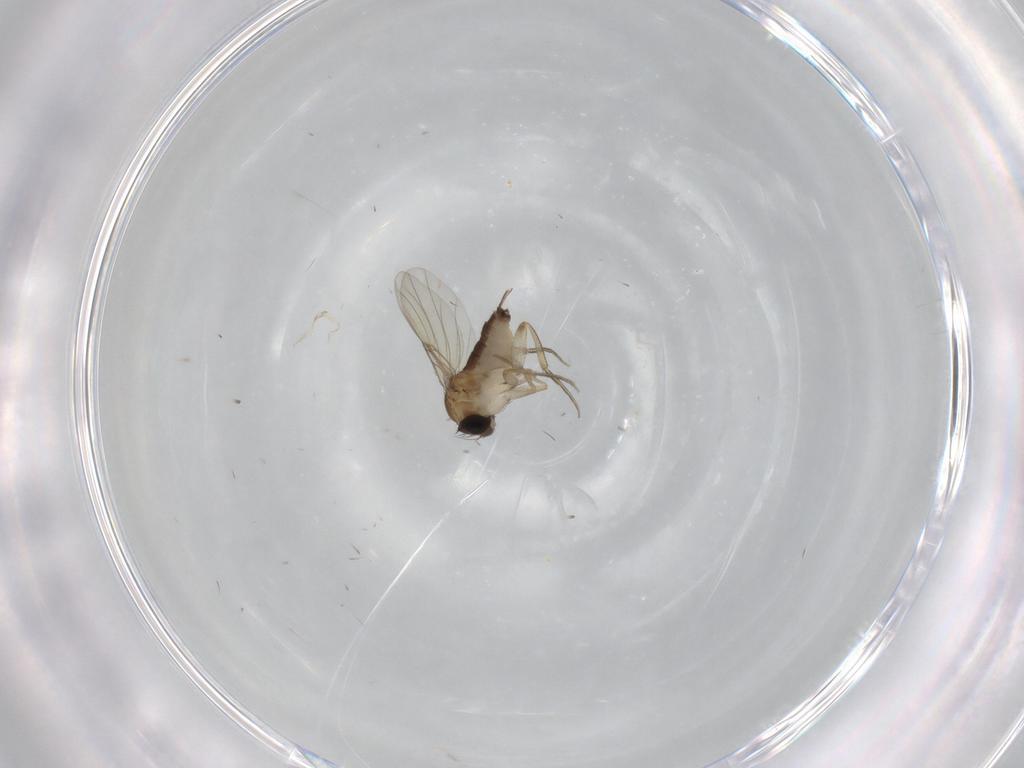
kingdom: Animalia
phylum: Arthropoda
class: Insecta
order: Diptera
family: Phoridae
